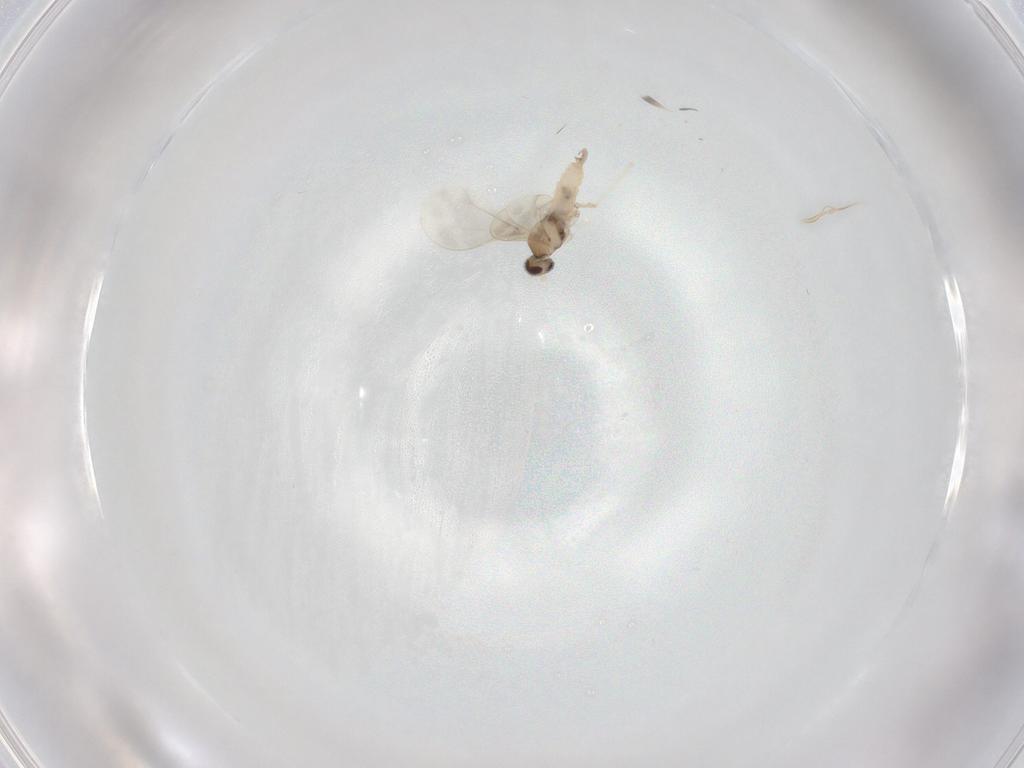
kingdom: Animalia
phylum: Arthropoda
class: Insecta
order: Diptera
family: Cecidomyiidae
